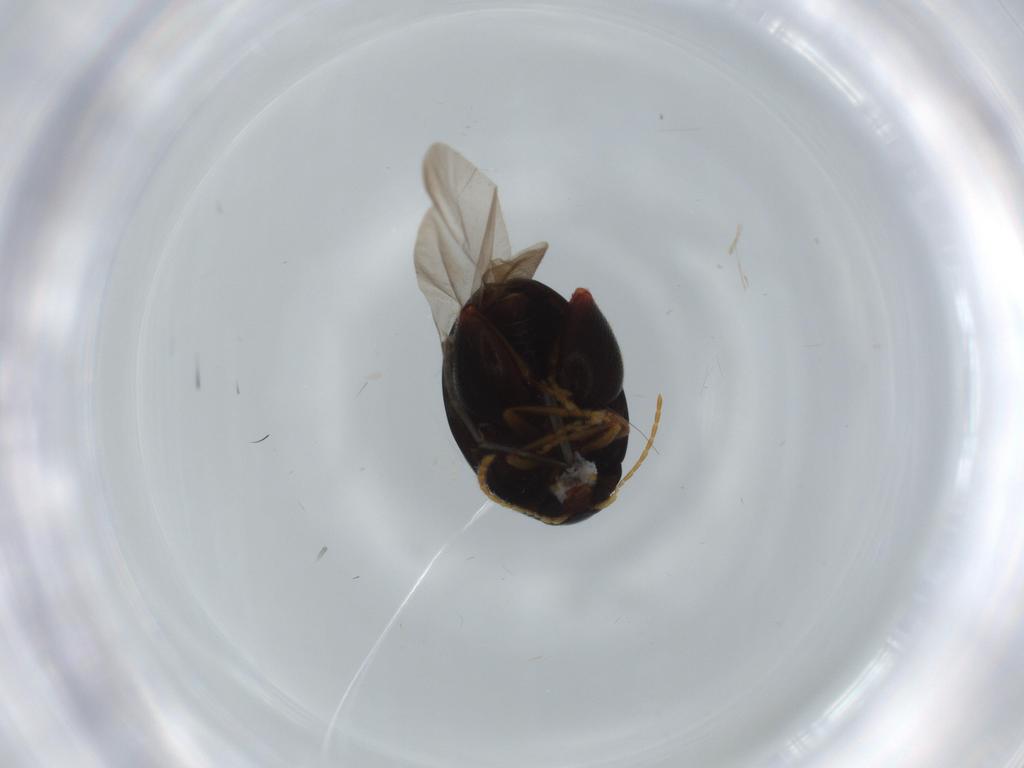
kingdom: Animalia
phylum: Arthropoda
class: Insecta
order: Coleoptera
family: Chrysomelidae
